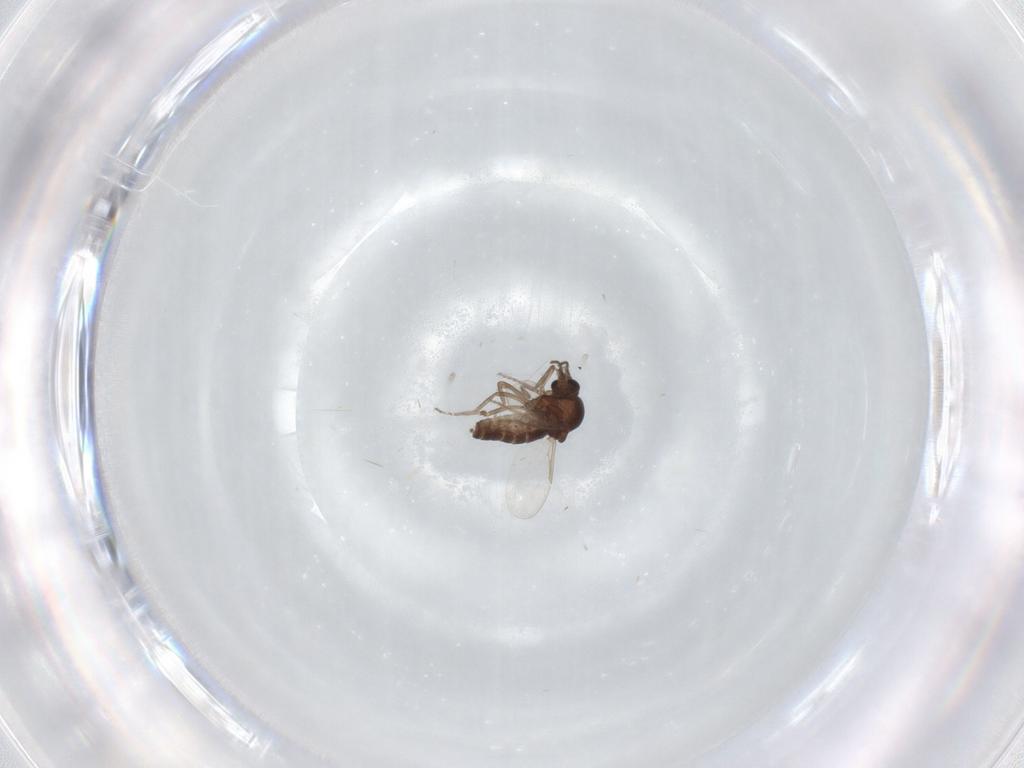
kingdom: Animalia
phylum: Arthropoda
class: Insecta
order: Diptera
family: Ceratopogonidae
